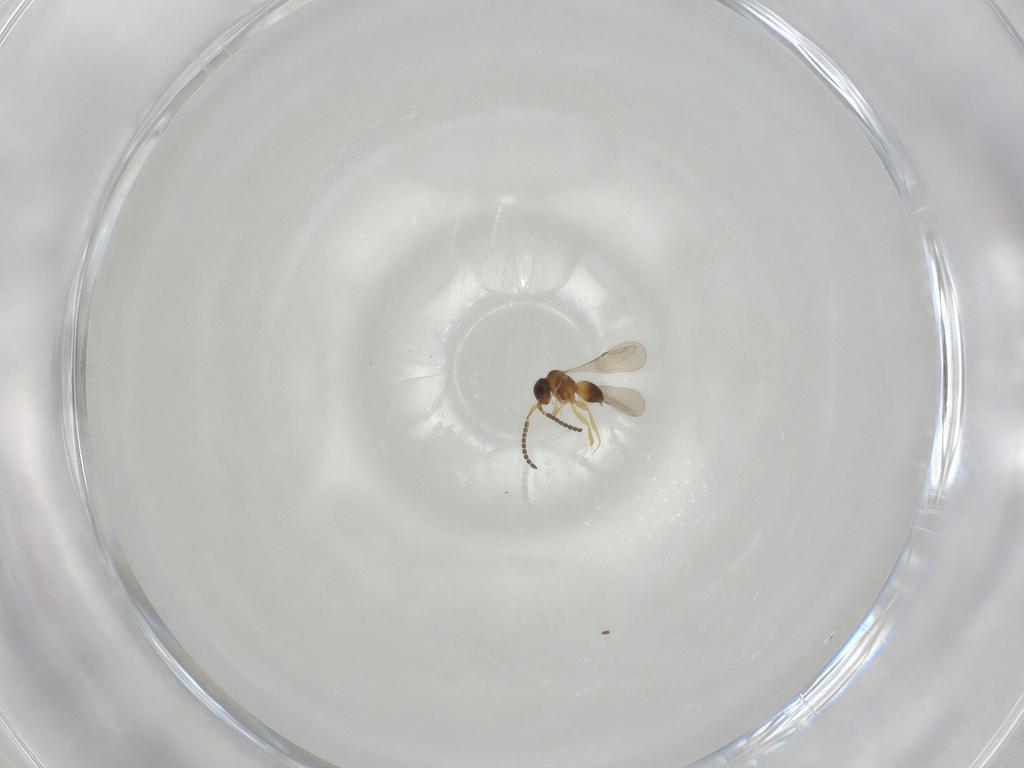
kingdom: Animalia
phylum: Arthropoda
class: Insecta
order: Hymenoptera
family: Eulophidae
